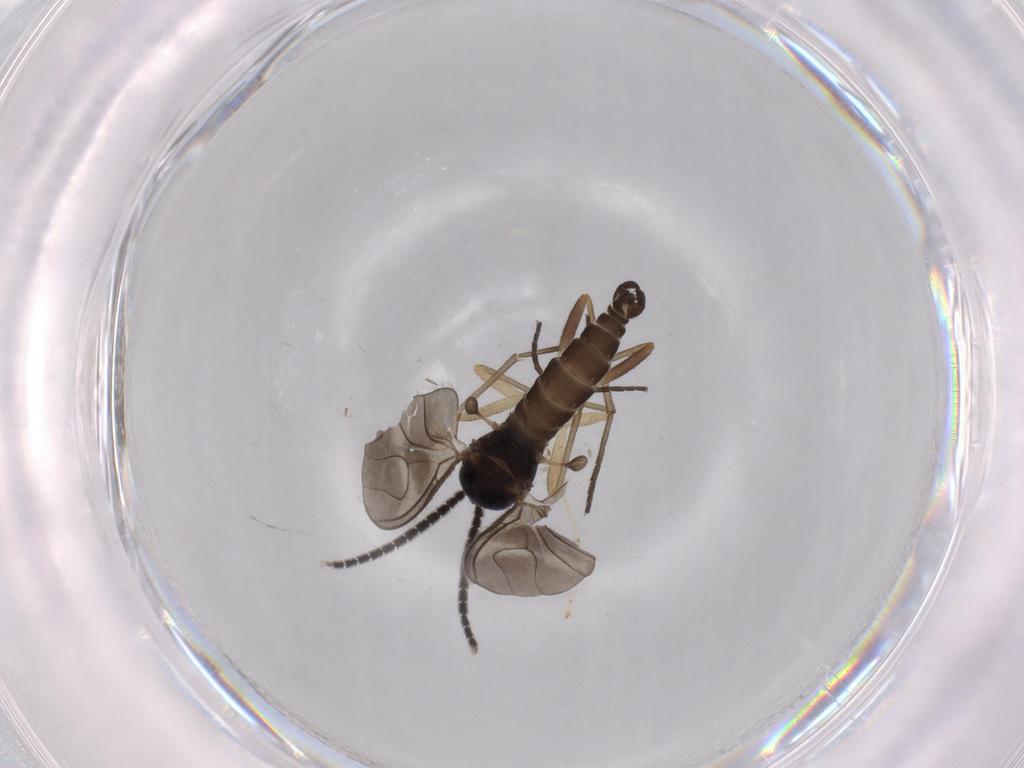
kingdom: Animalia
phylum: Arthropoda
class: Insecta
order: Diptera
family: Sciaridae
